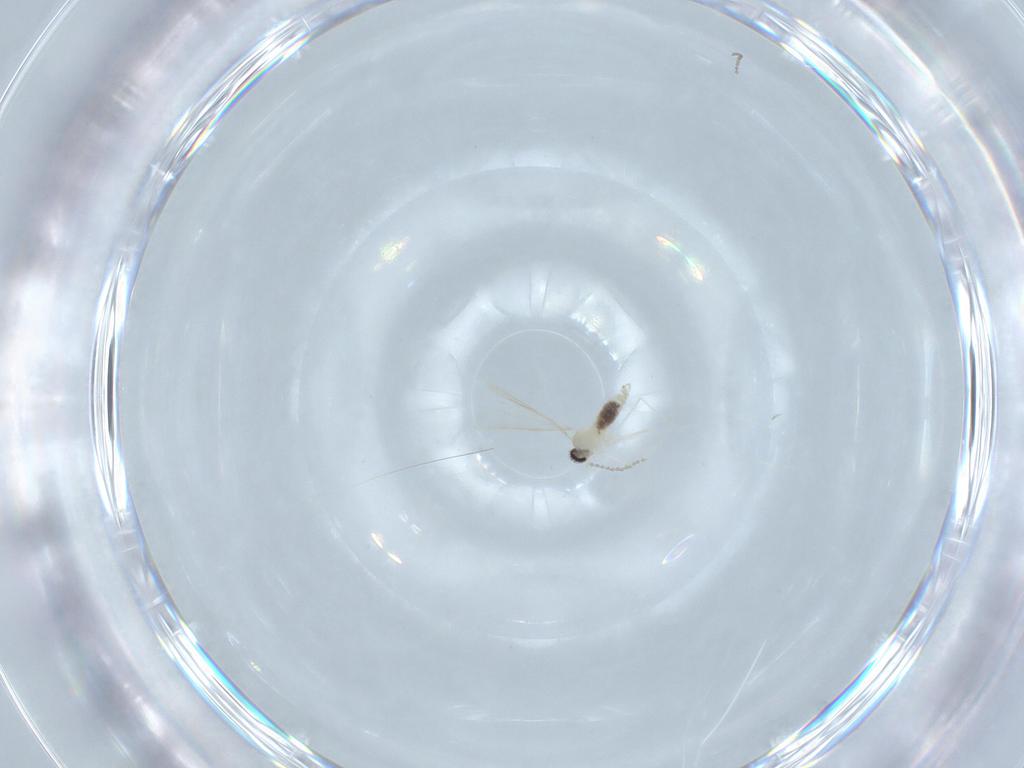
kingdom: Animalia
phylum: Arthropoda
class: Insecta
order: Diptera
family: Cecidomyiidae
